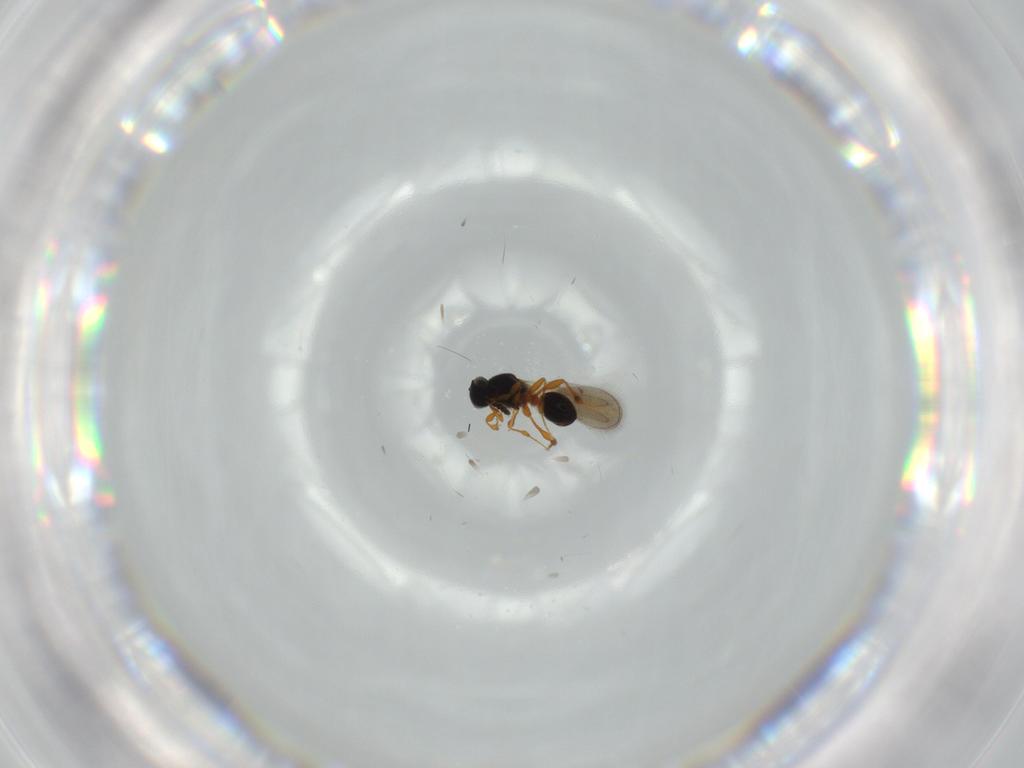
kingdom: Animalia
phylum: Arthropoda
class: Insecta
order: Hymenoptera
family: Platygastridae
